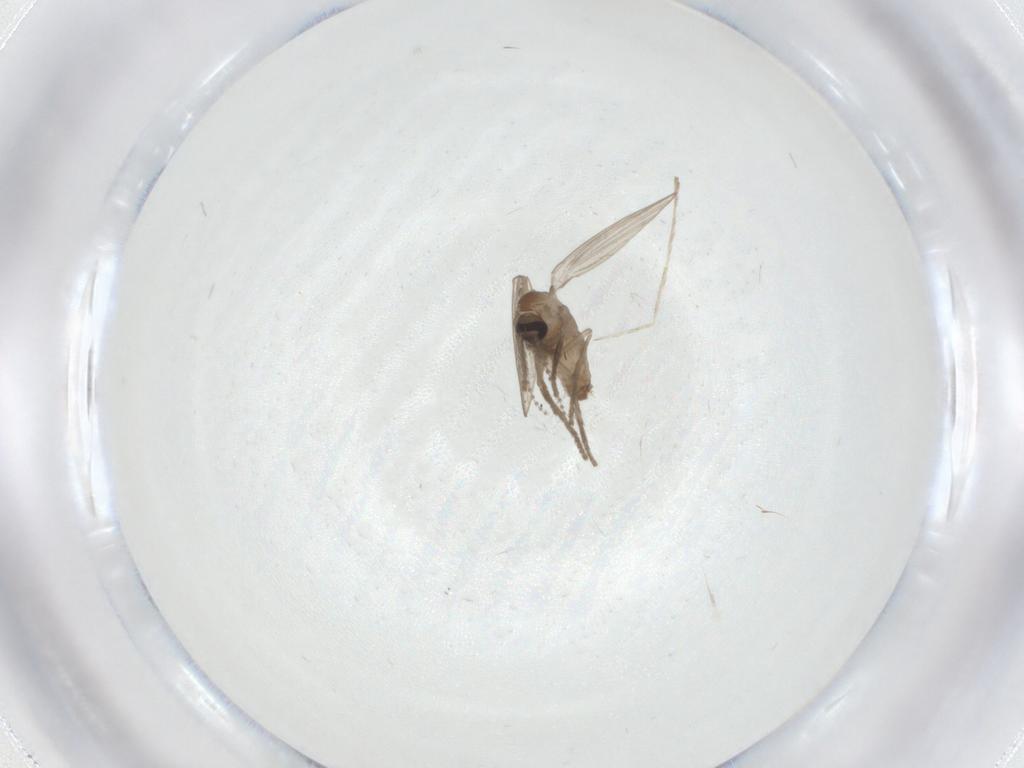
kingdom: Animalia
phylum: Arthropoda
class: Insecta
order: Diptera
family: Psychodidae
